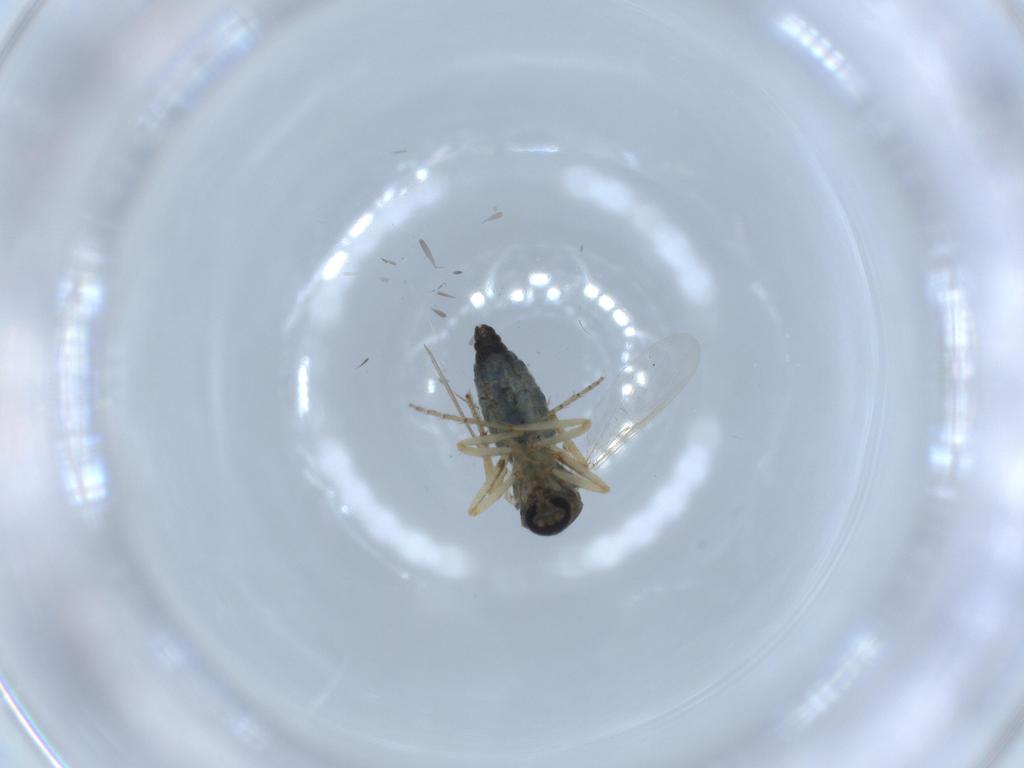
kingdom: Animalia
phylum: Arthropoda
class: Insecta
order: Diptera
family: Ceratopogonidae
